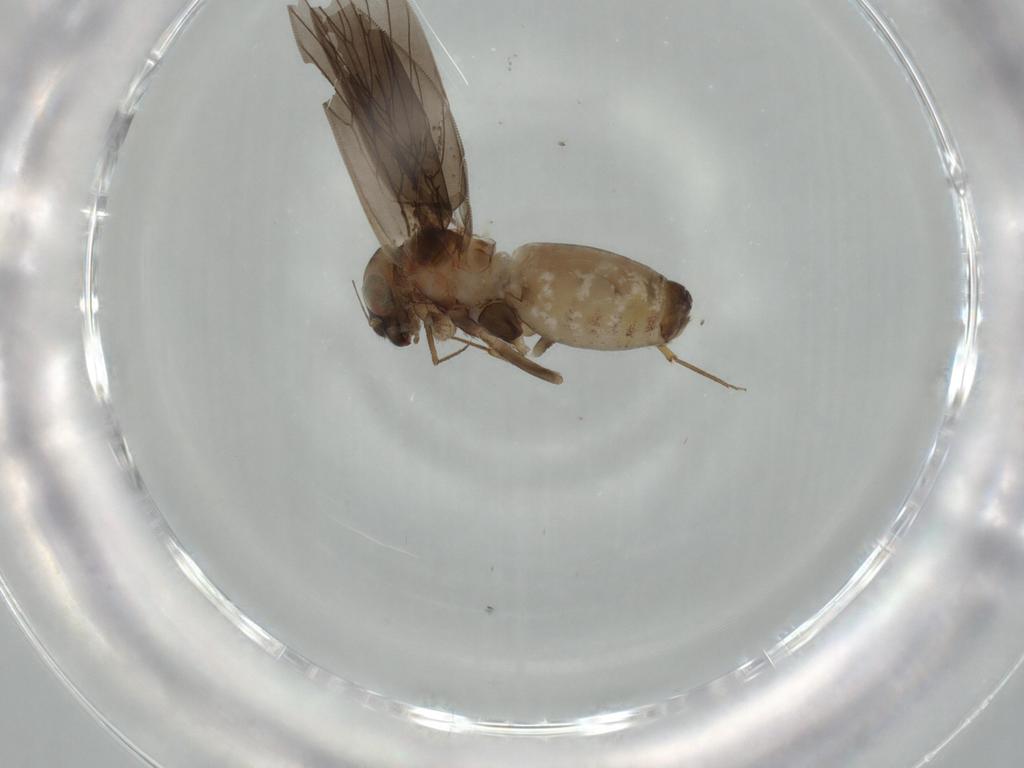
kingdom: Animalia
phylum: Arthropoda
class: Insecta
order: Psocodea
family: Lepidopsocidae
